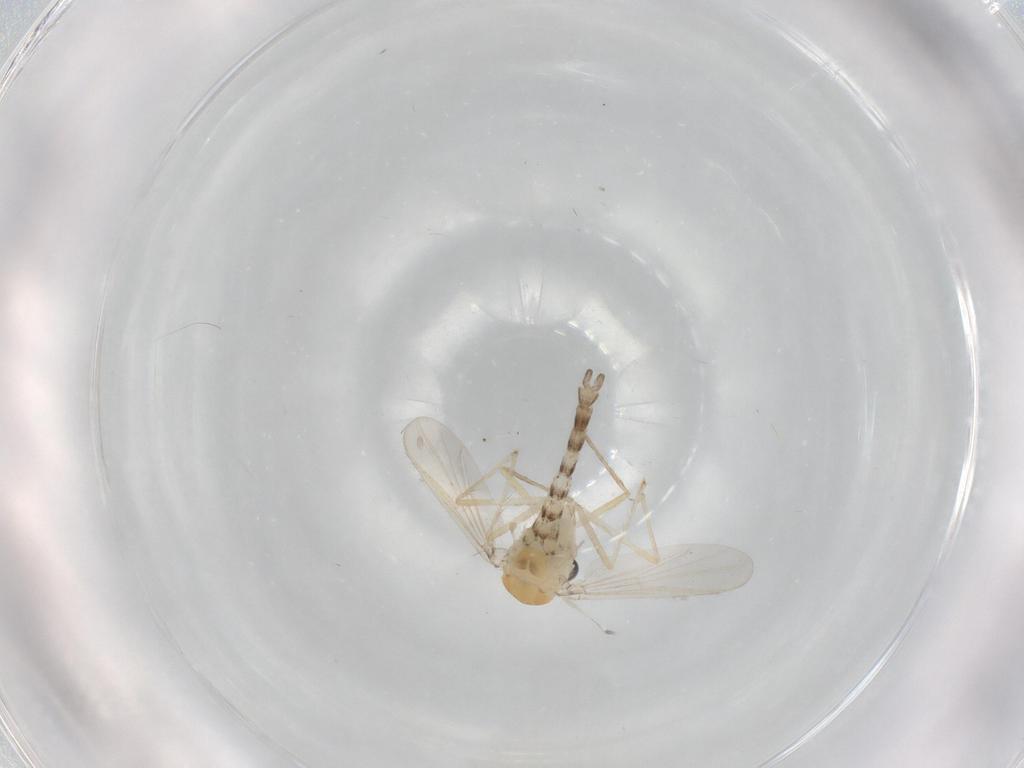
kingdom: Animalia
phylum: Arthropoda
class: Insecta
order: Diptera
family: Chironomidae
